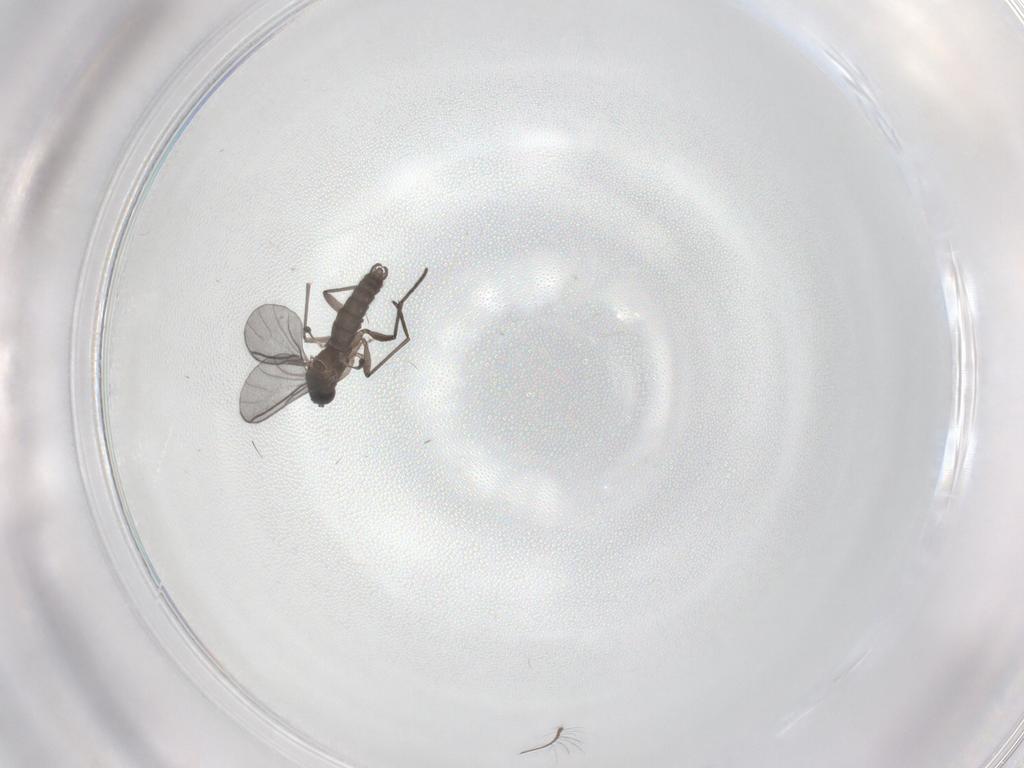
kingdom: Animalia
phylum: Arthropoda
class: Insecta
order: Diptera
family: Chironomidae
